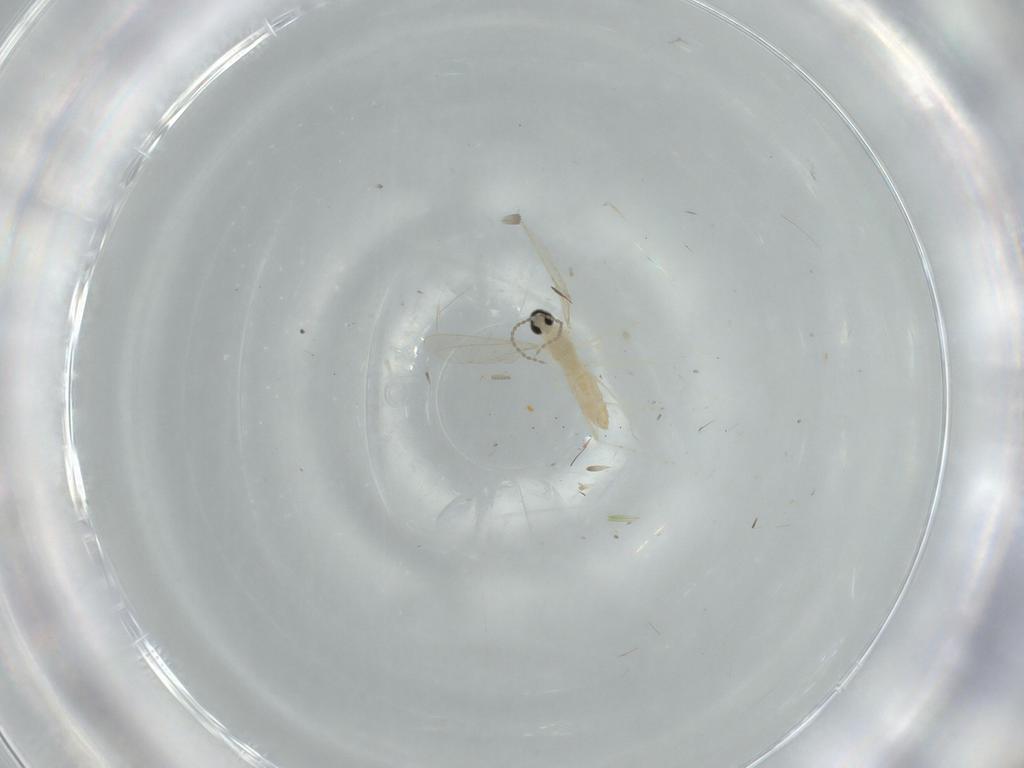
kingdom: Animalia
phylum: Arthropoda
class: Insecta
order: Diptera
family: Cecidomyiidae
